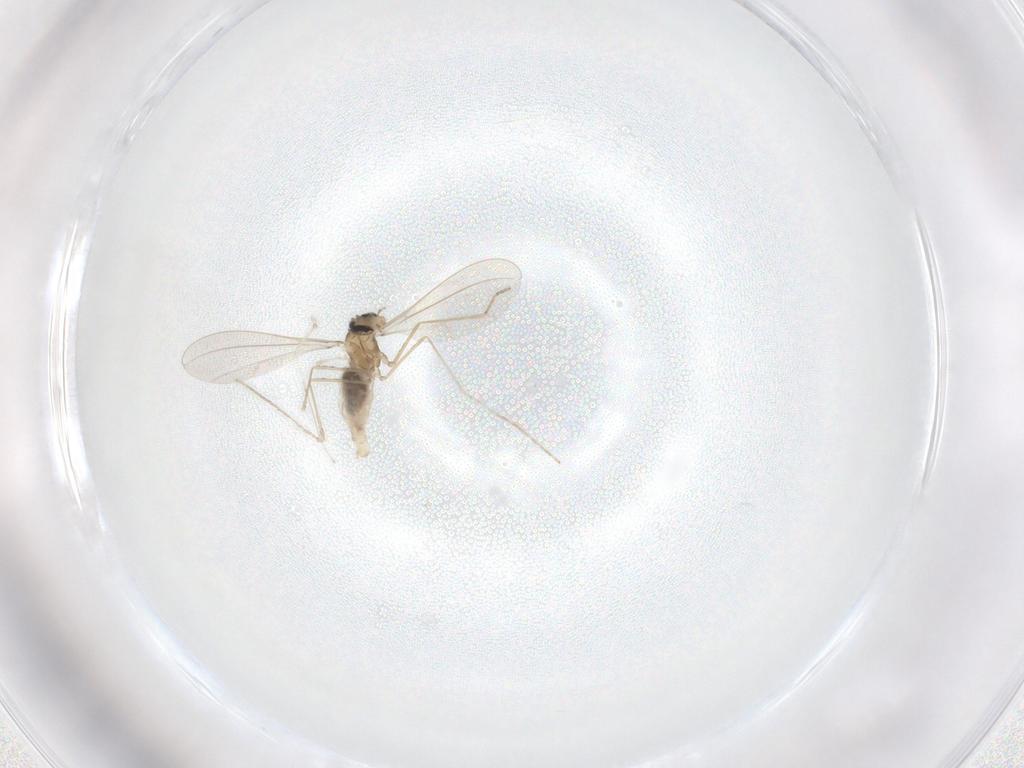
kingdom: Animalia
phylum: Arthropoda
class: Insecta
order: Diptera
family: Cecidomyiidae
